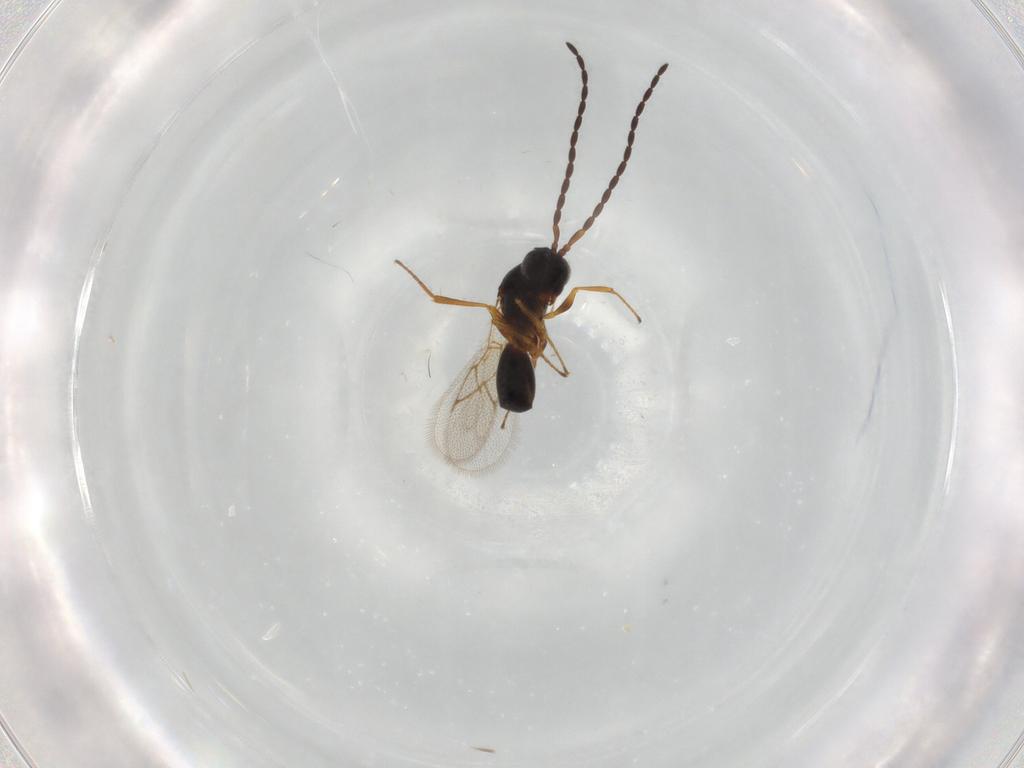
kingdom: Animalia
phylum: Arthropoda
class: Insecta
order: Hymenoptera
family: Figitidae
